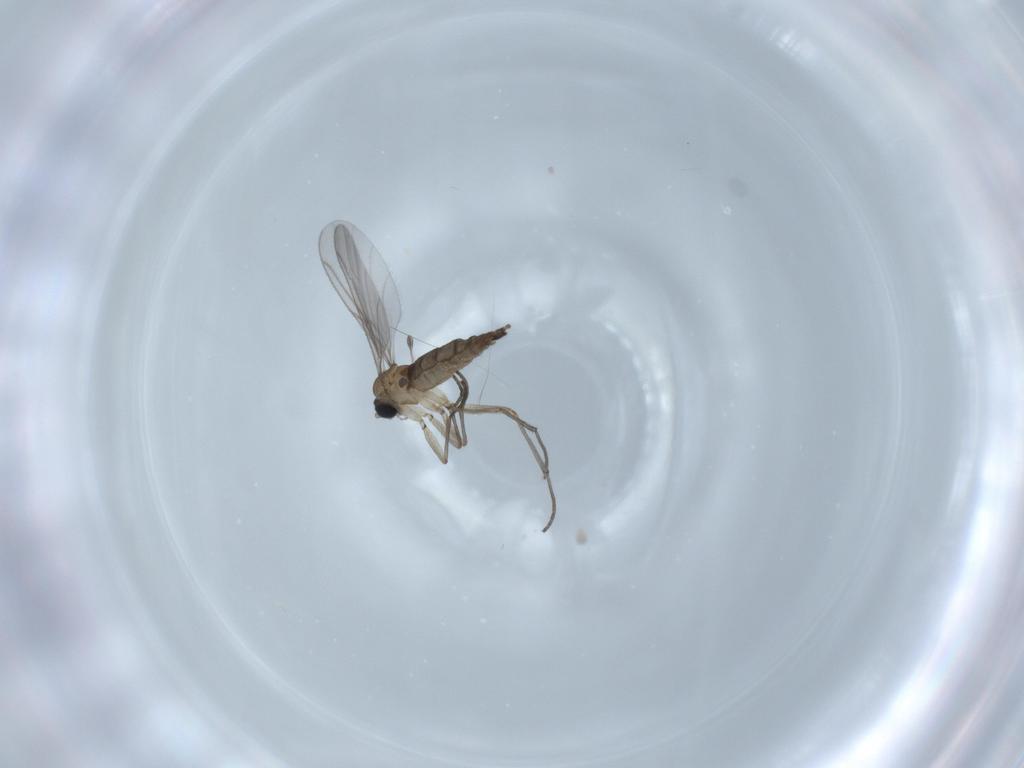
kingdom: Animalia
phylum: Arthropoda
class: Insecta
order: Diptera
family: Sciaridae
